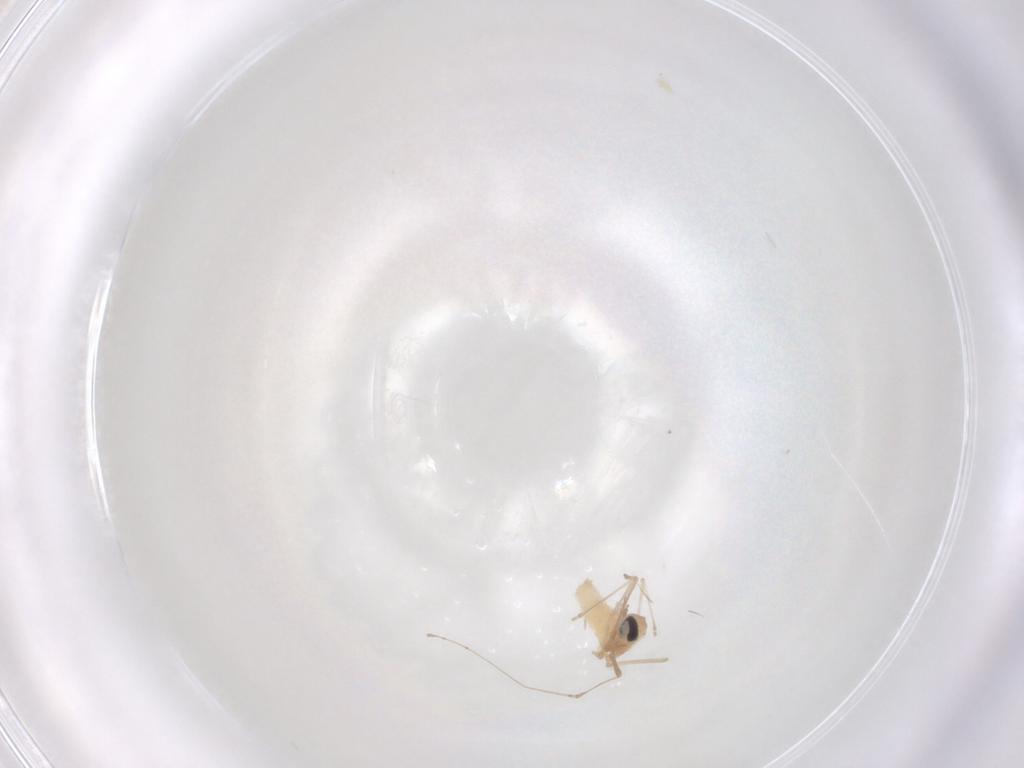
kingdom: Animalia
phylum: Arthropoda
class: Insecta
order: Diptera
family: Cecidomyiidae
